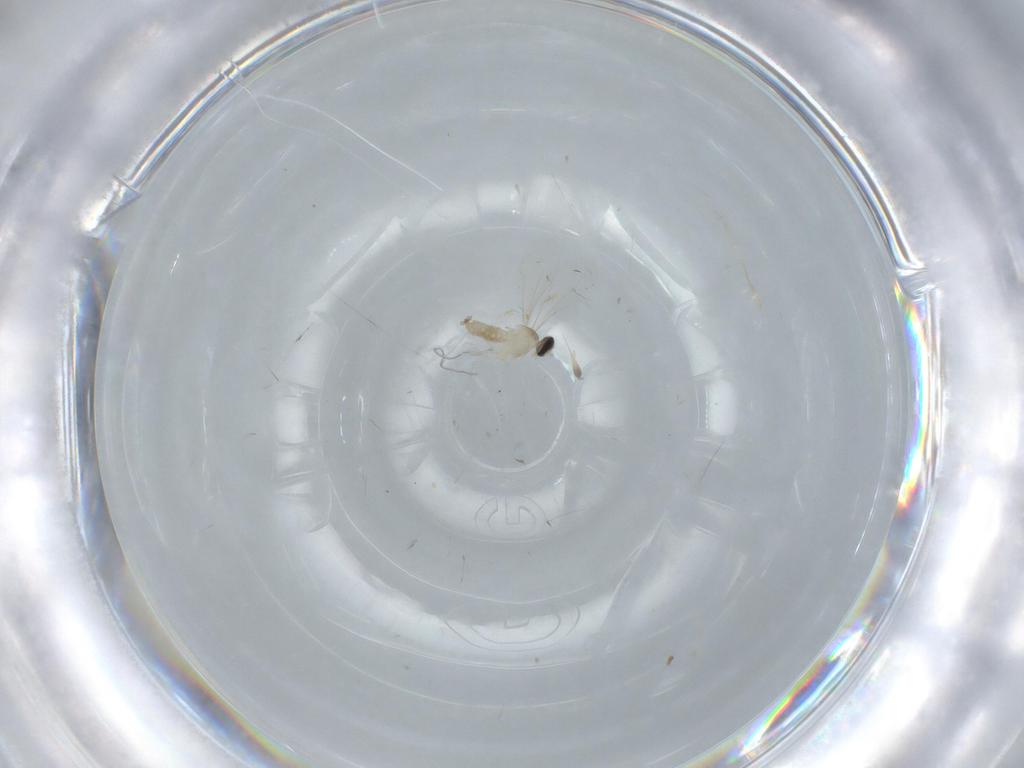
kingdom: Animalia
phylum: Arthropoda
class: Insecta
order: Diptera
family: Cecidomyiidae
